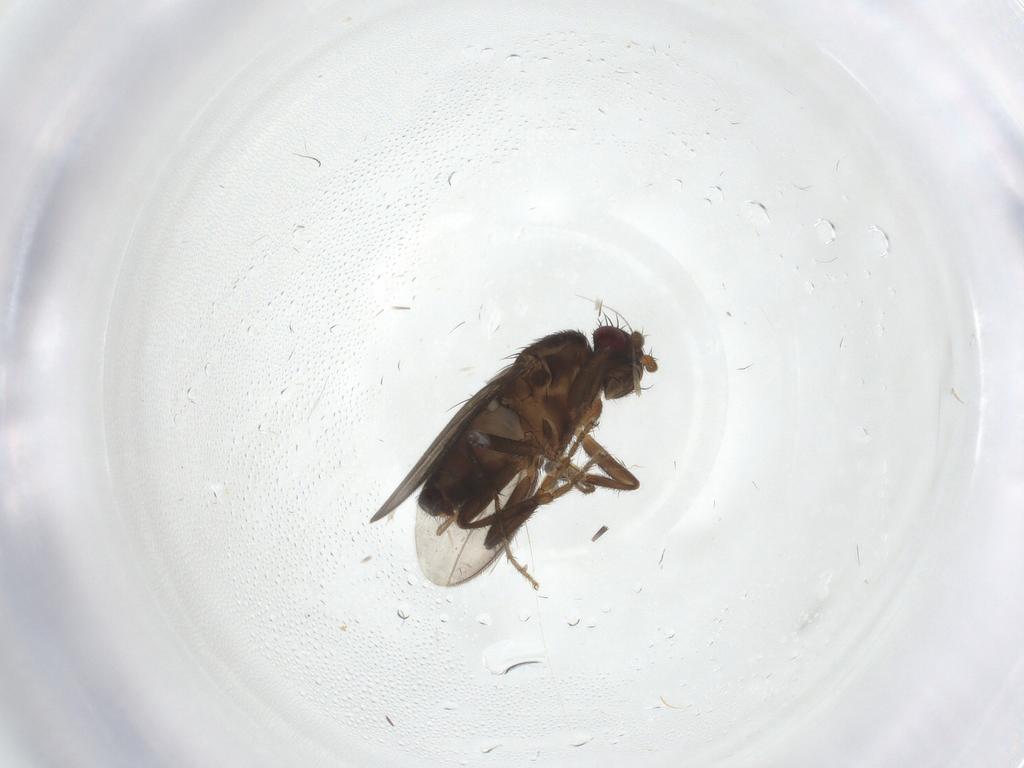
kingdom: Animalia
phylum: Arthropoda
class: Insecta
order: Diptera
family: Sphaeroceridae
